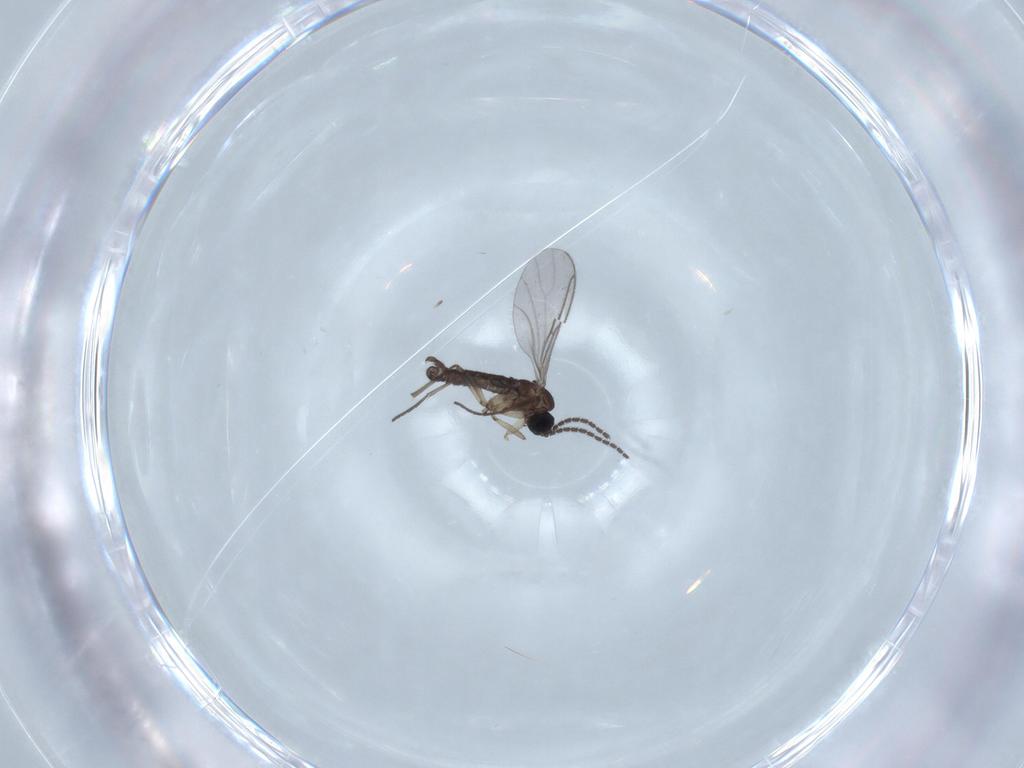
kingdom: Animalia
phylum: Arthropoda
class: Insecta
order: Diptera
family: Sciaridae
